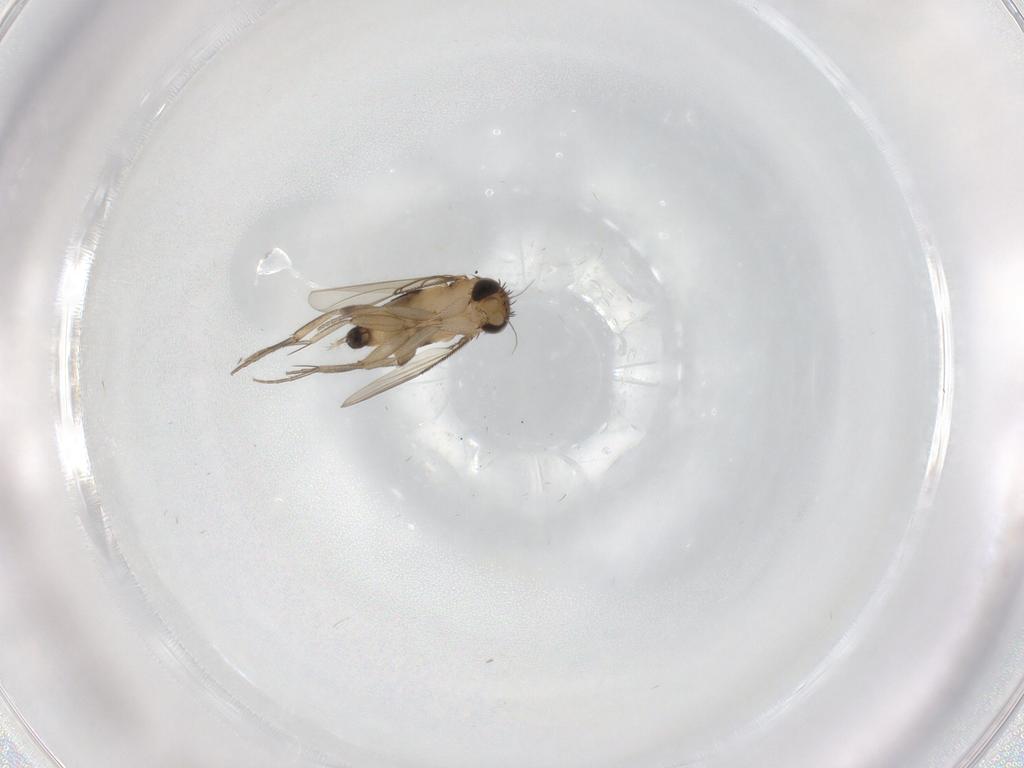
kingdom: Animalia
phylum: Arthropoda
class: Insecta
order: Diptera
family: Phoridae
